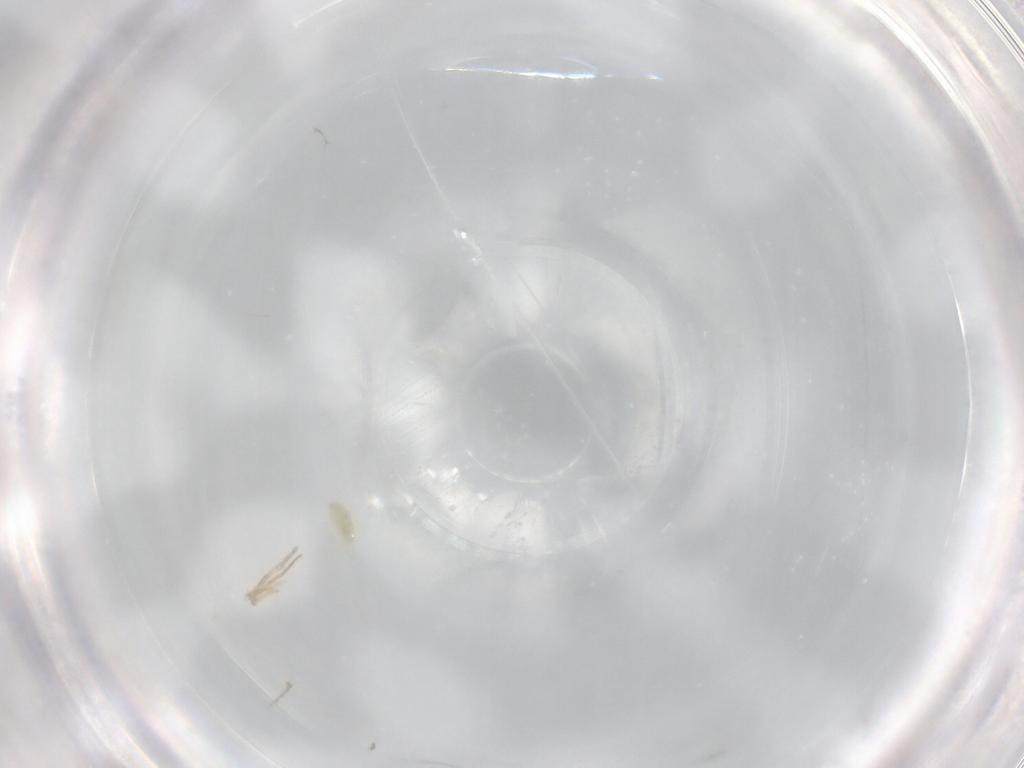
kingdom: Animalia
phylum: Arthropoda
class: Arachnida
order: Trombidiformes
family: Eupodidae
